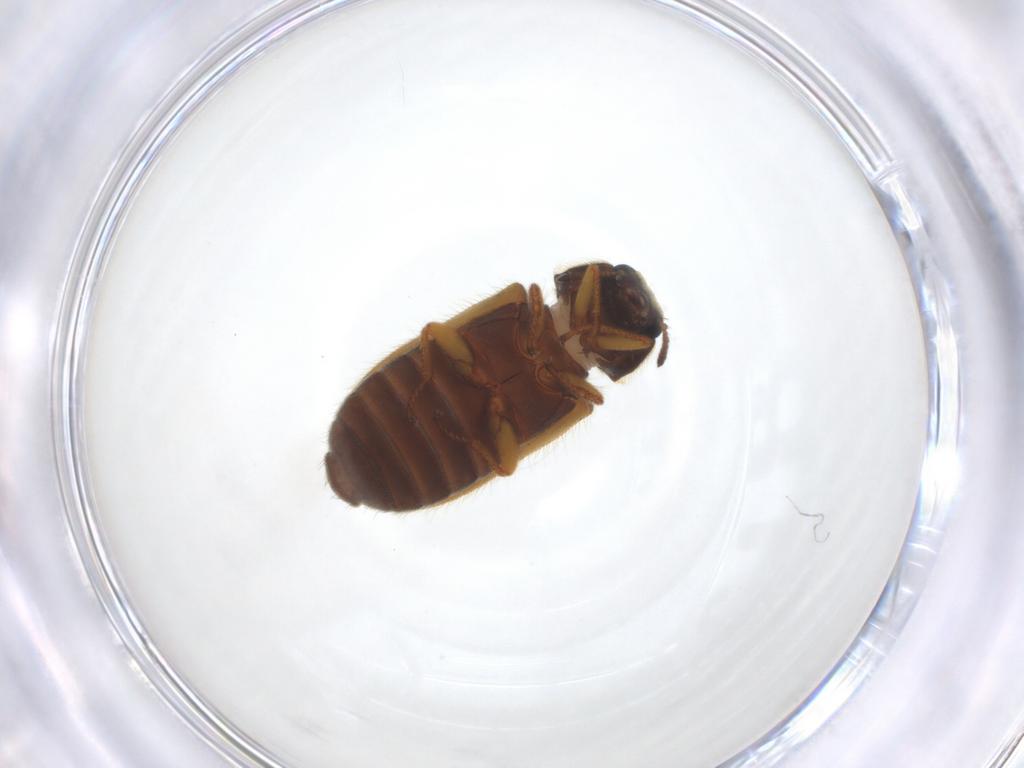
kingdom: Animalia
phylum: Arthropoda
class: Insecta
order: Coleoptera
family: Melyridae
